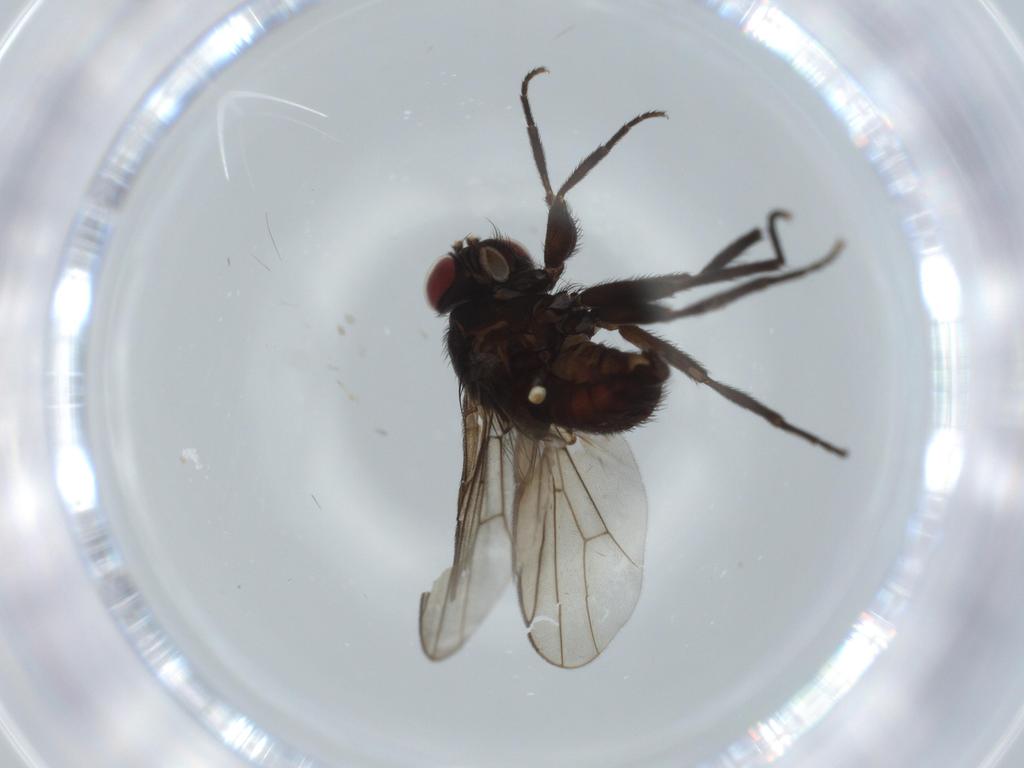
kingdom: Animalia
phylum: Arthropoda
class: Insecta
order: Diptera
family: Agromyzidae
